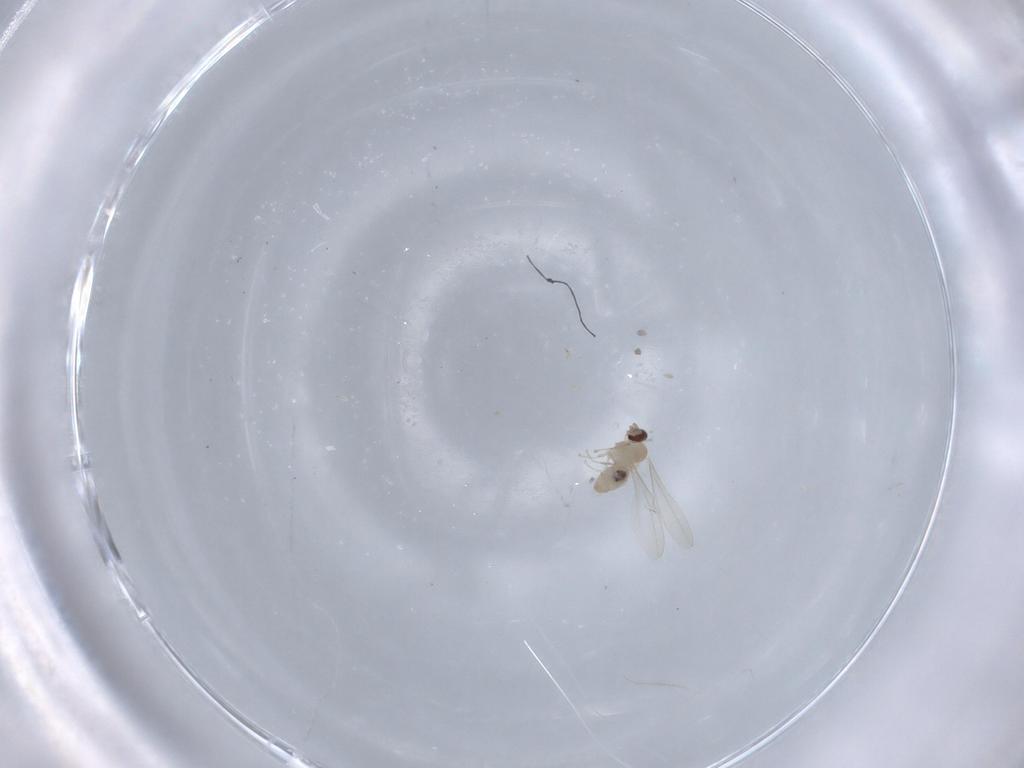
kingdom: Animalia
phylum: Arthropoda
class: Insecta
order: Diptera
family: Cecidomyiidae
